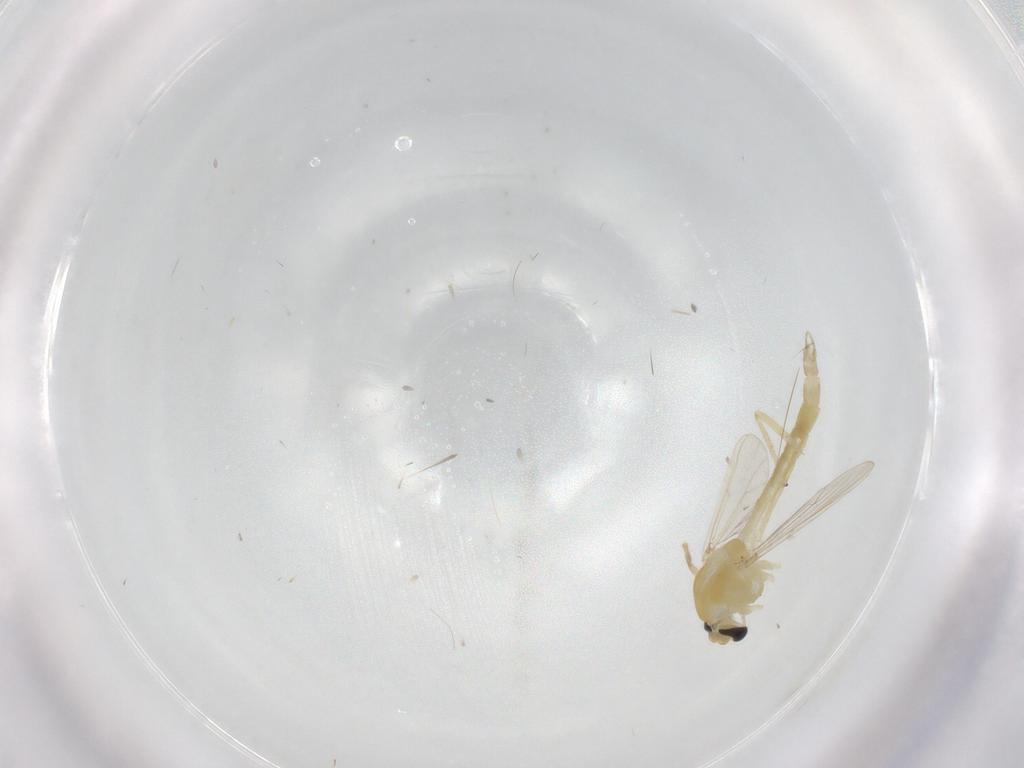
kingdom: Animalia
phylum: Arthropoda
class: Insecta
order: Diptera
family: Chironomidae
